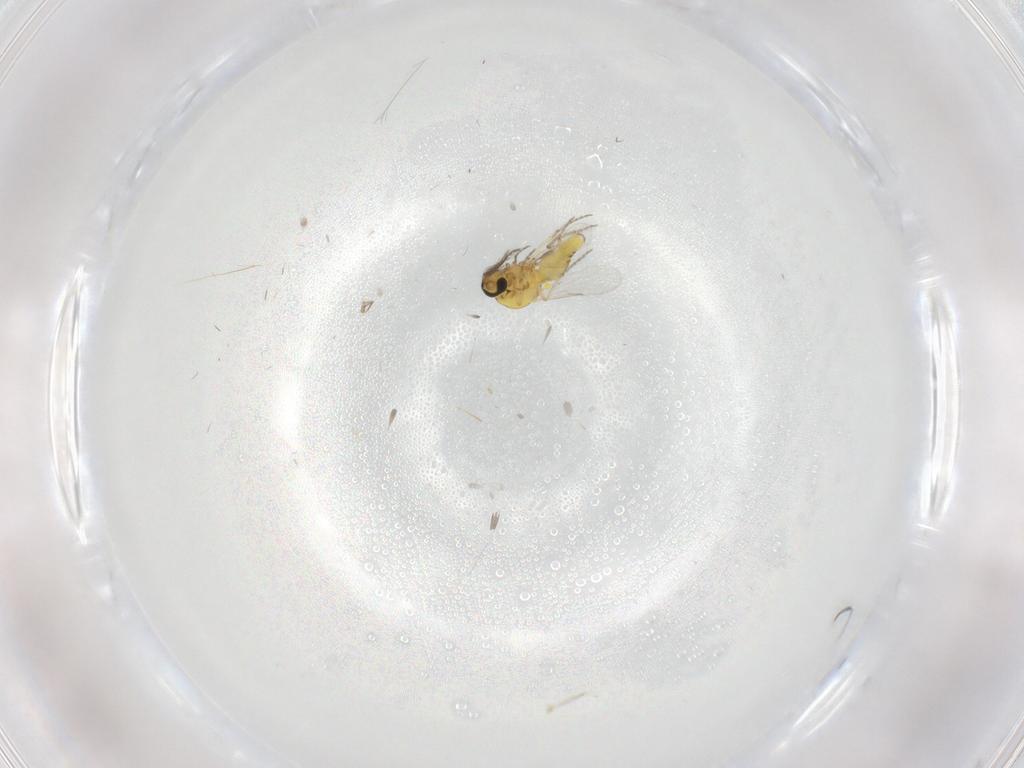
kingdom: Animalia
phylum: Arthropoda
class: Insecta
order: Diptera
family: Ceratopogonidae
